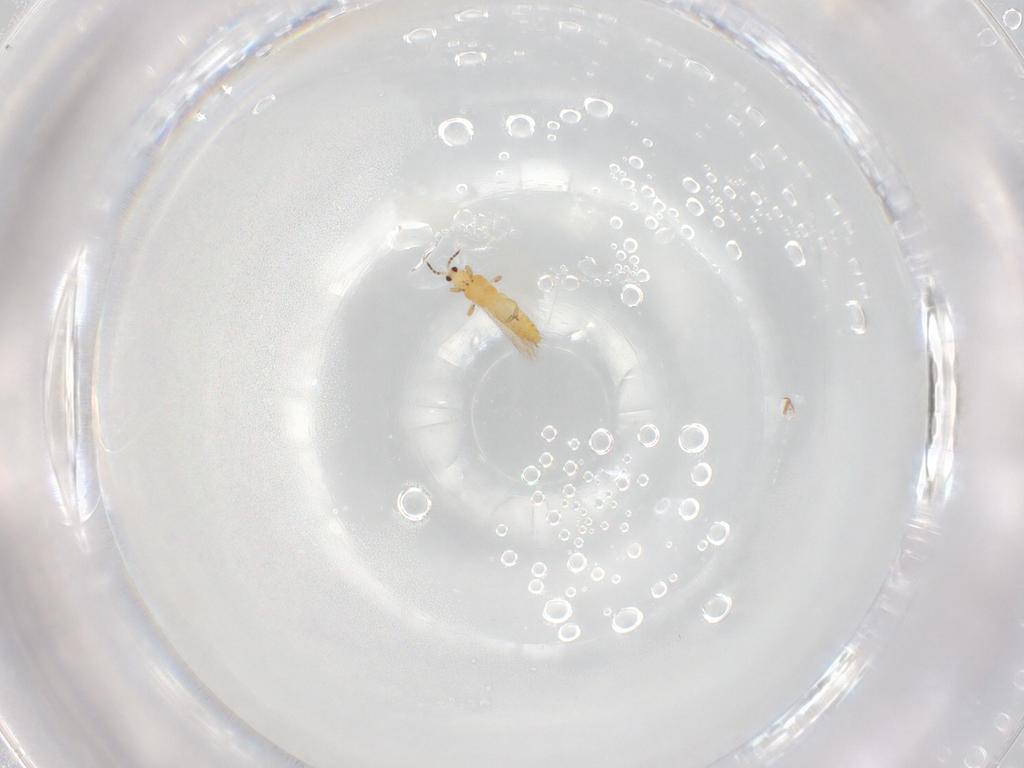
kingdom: Animalia
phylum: Arthropoda
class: Insecta
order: Thysanoptera
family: Thripidae
